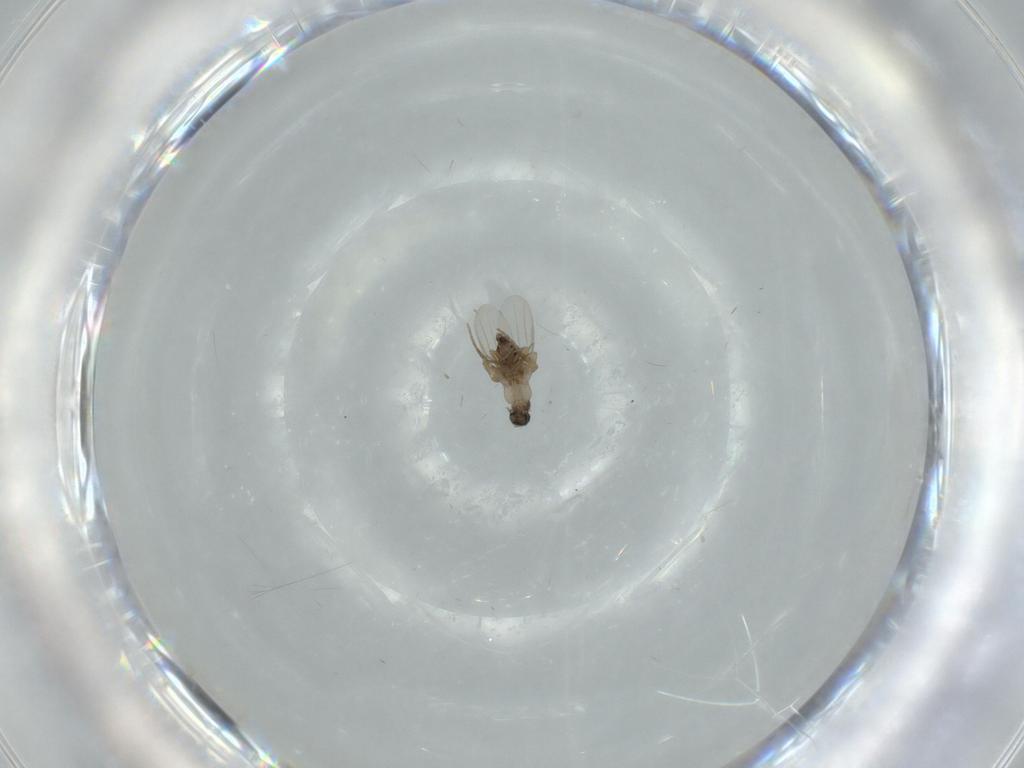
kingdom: Animalia
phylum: Arthropoda
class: Insecta
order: Diptera
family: Phoridae
